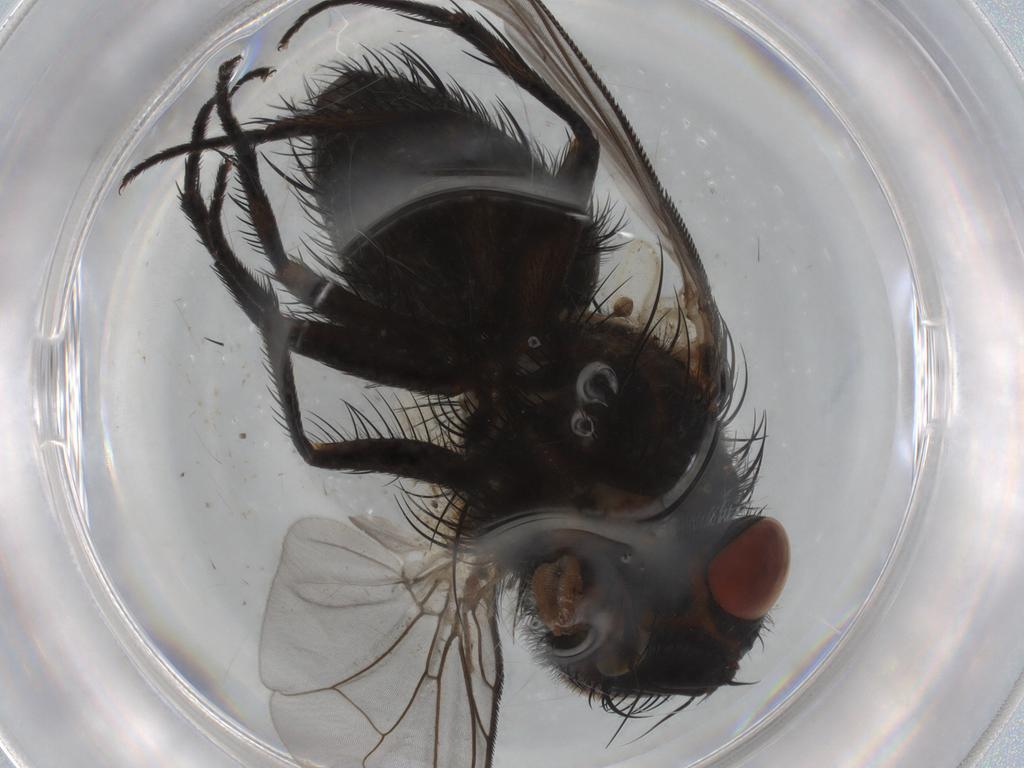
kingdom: Animalia
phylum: Arthropoda
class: Insecta
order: Diptera
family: Tachinidae
